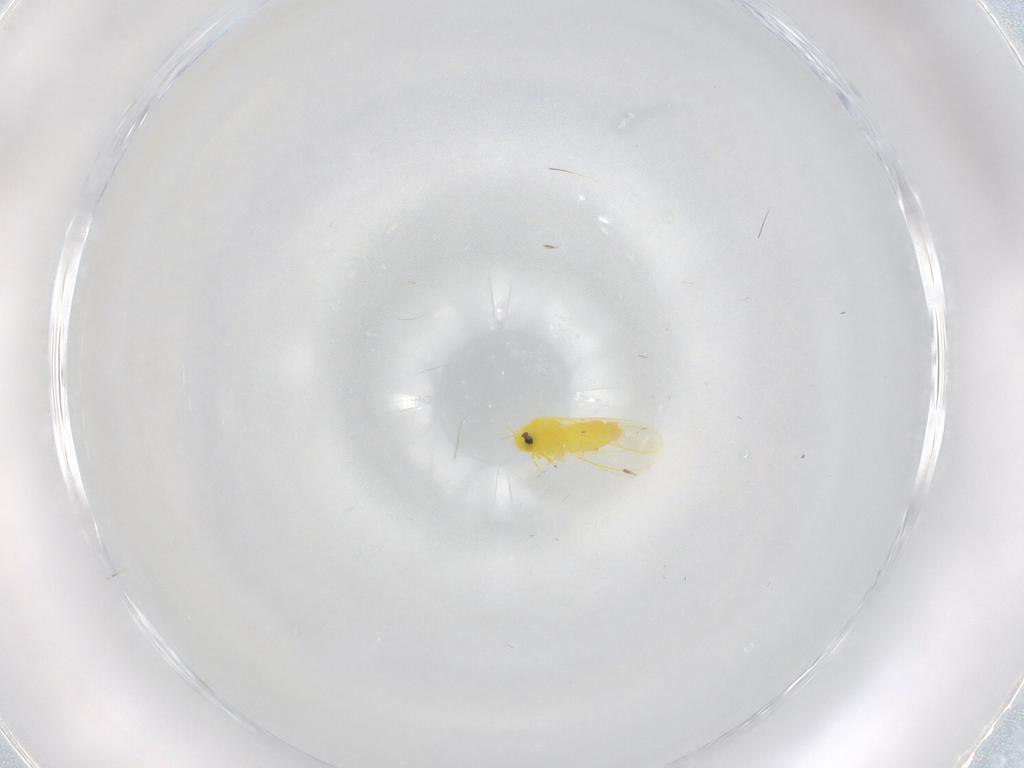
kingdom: Animalia
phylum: Arthropoda
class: Insecta
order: Hemiptera
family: Aleyrodidae
